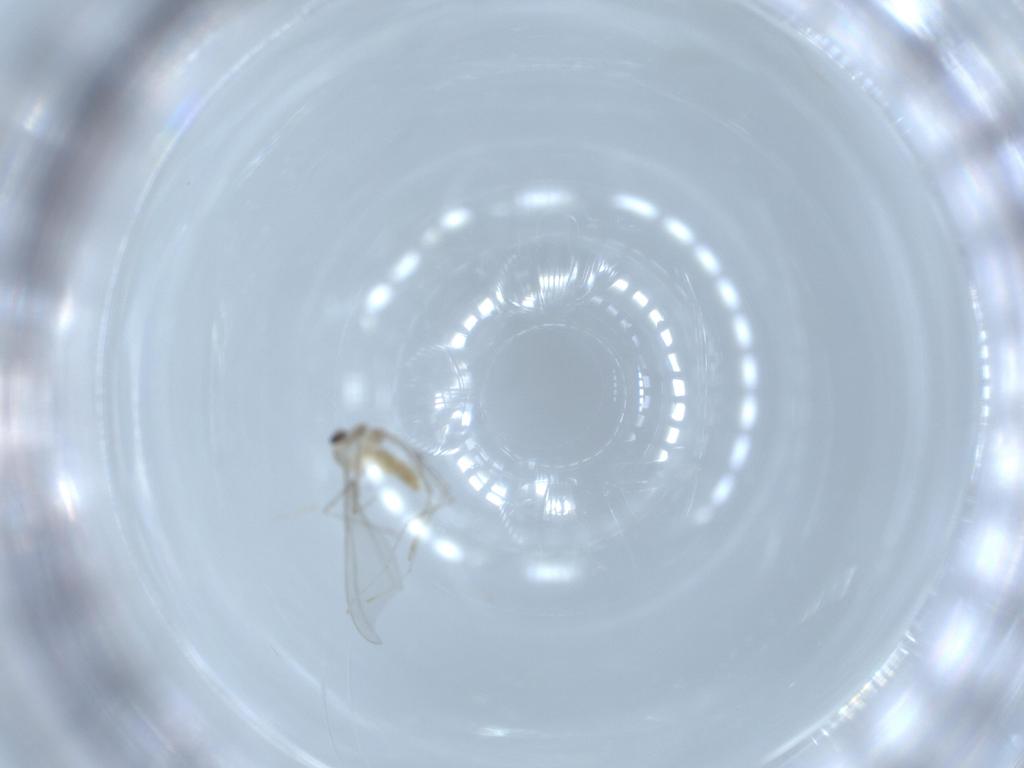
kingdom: Animalia
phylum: Arthropoda
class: Insecta
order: Diptera
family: Cecidomyiidae
